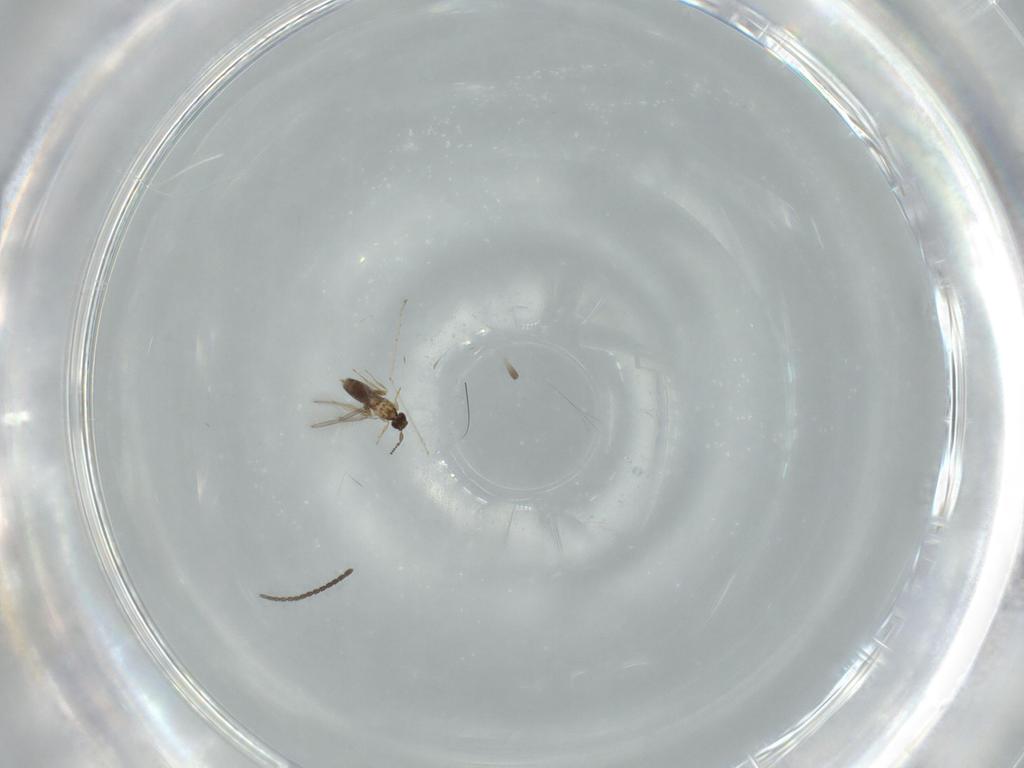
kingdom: Animalia
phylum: Arthropoda
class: Insecta
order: Hymenoptera
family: Mymaridae
